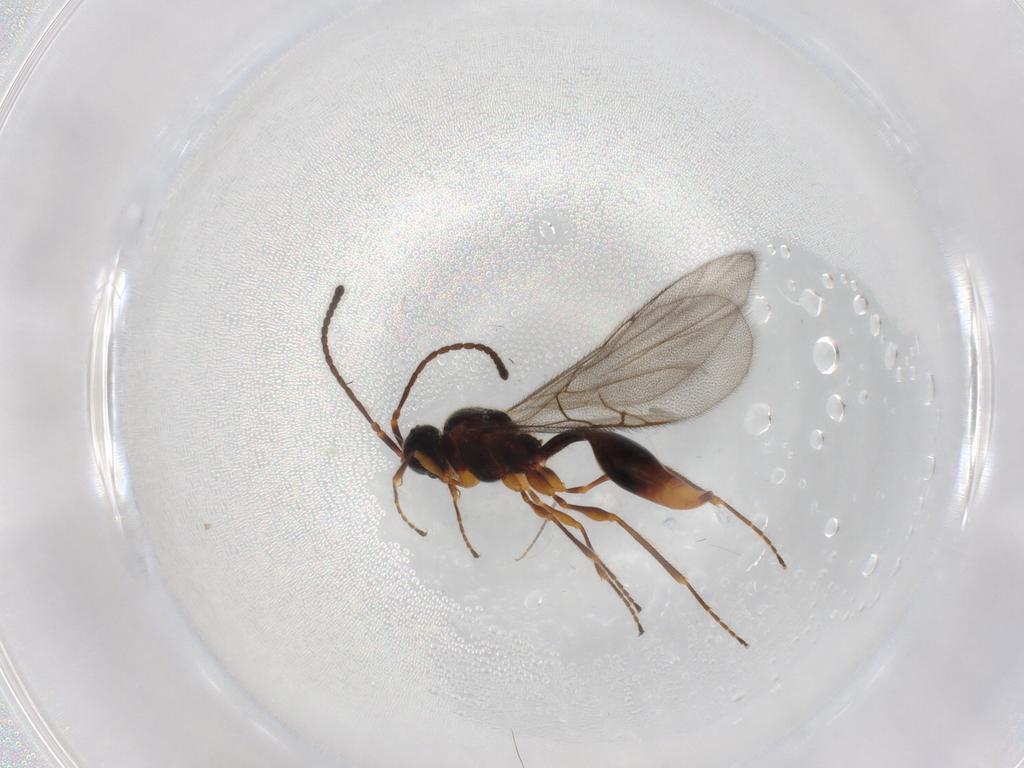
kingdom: Animalia
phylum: Arthropoda
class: Insecta
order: Hymenoptera
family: Diapriidae
